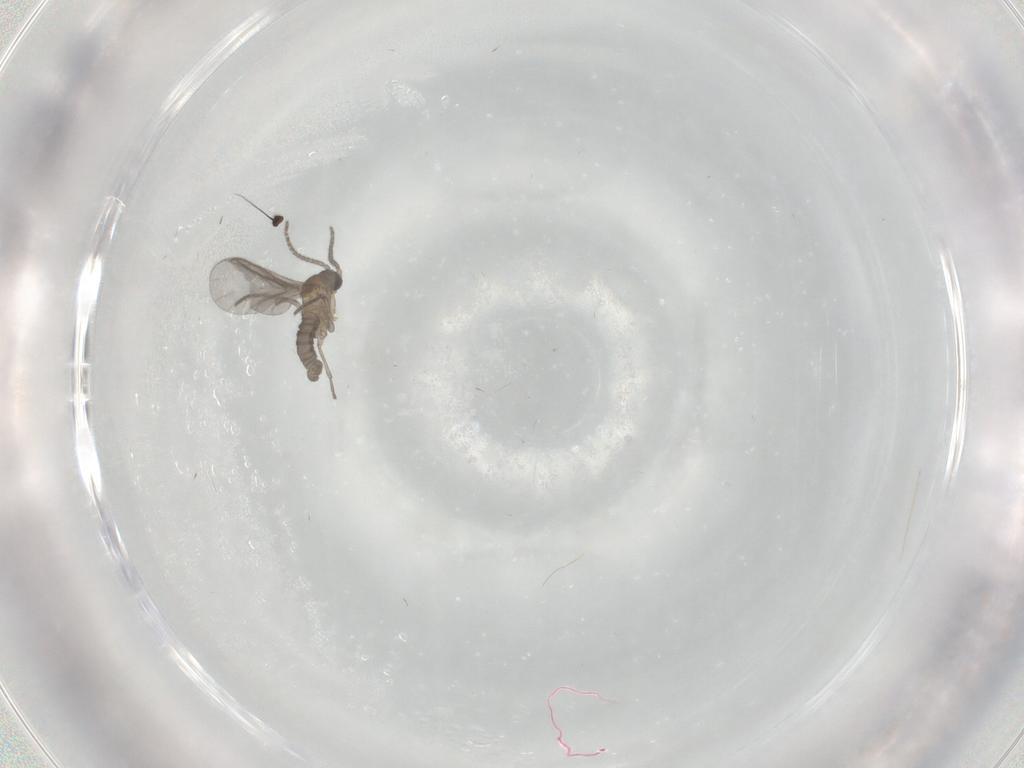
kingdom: Animalia
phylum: Arthropoda
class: Insecta
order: Diptera
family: Sciaridae
